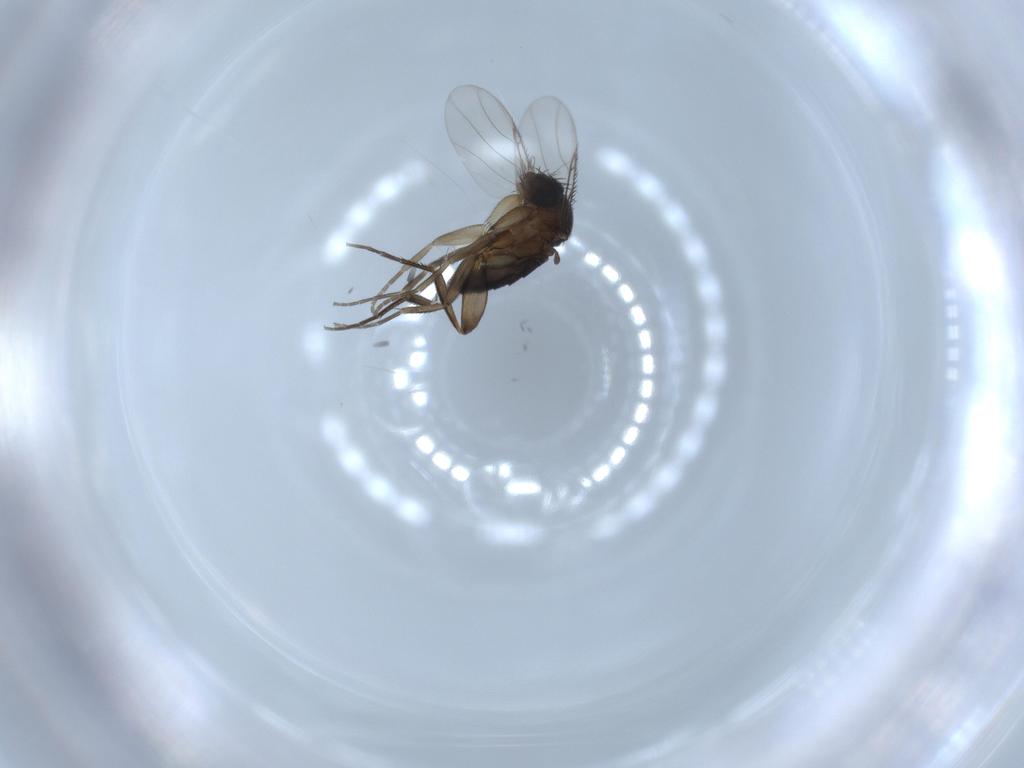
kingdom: Animalia
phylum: Arthropoda
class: Insecta
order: Diptera
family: Phoridae
